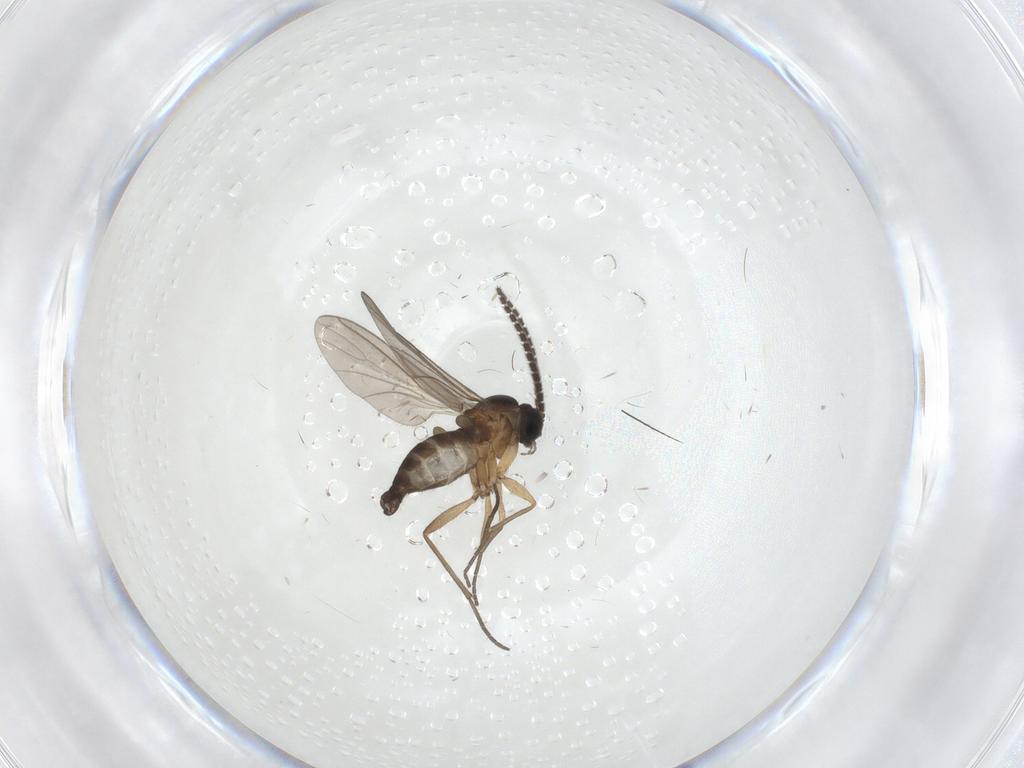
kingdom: Animalia
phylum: Arthropoda
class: Insecta
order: Diptera
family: Sciaridae
